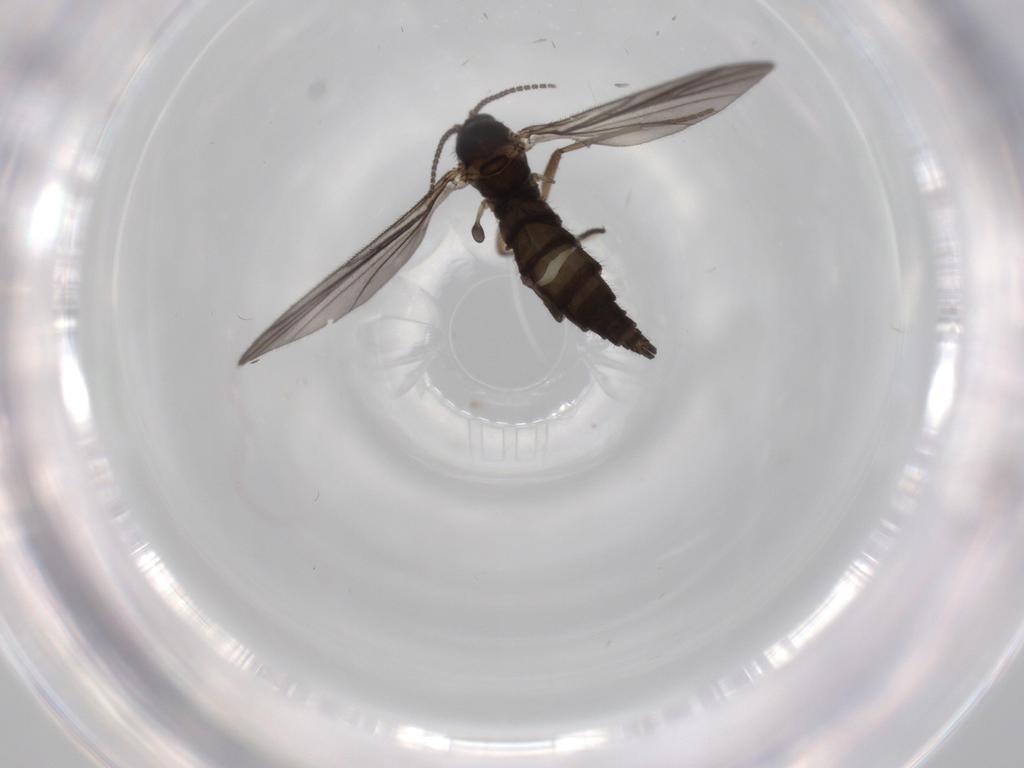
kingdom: Animalia
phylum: Arthropoda
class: Insecta
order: Diptera
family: Sciaridae
